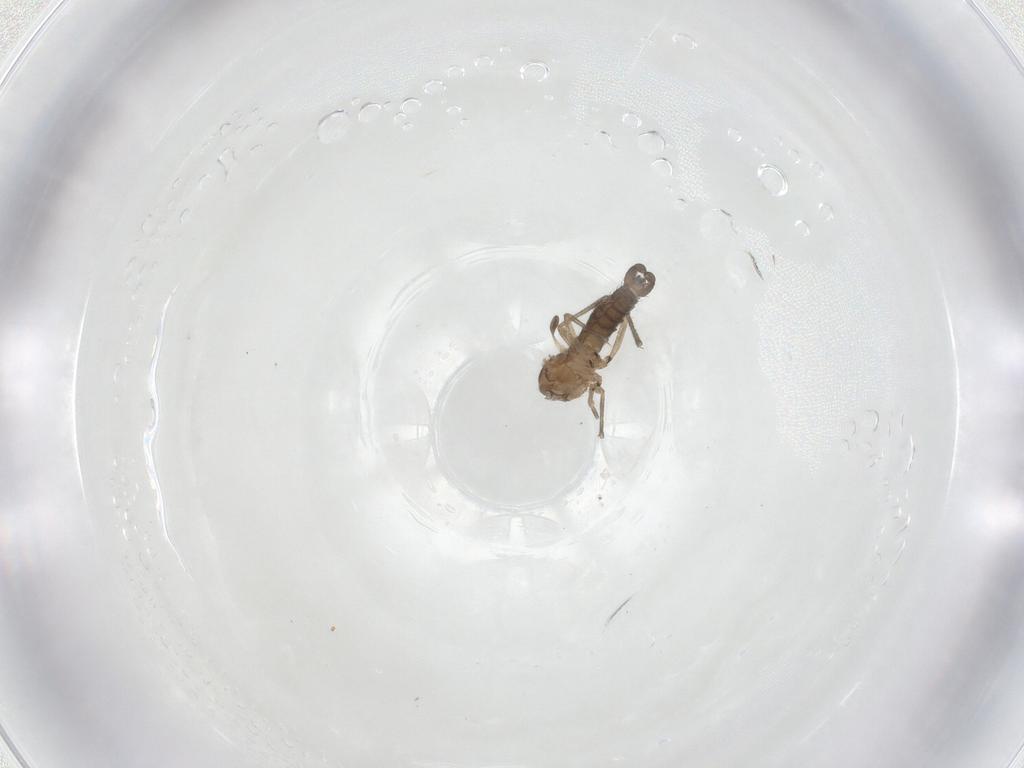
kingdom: Animalia
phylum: Arthropoda
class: Insecta
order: Diptera
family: Sciaridae
